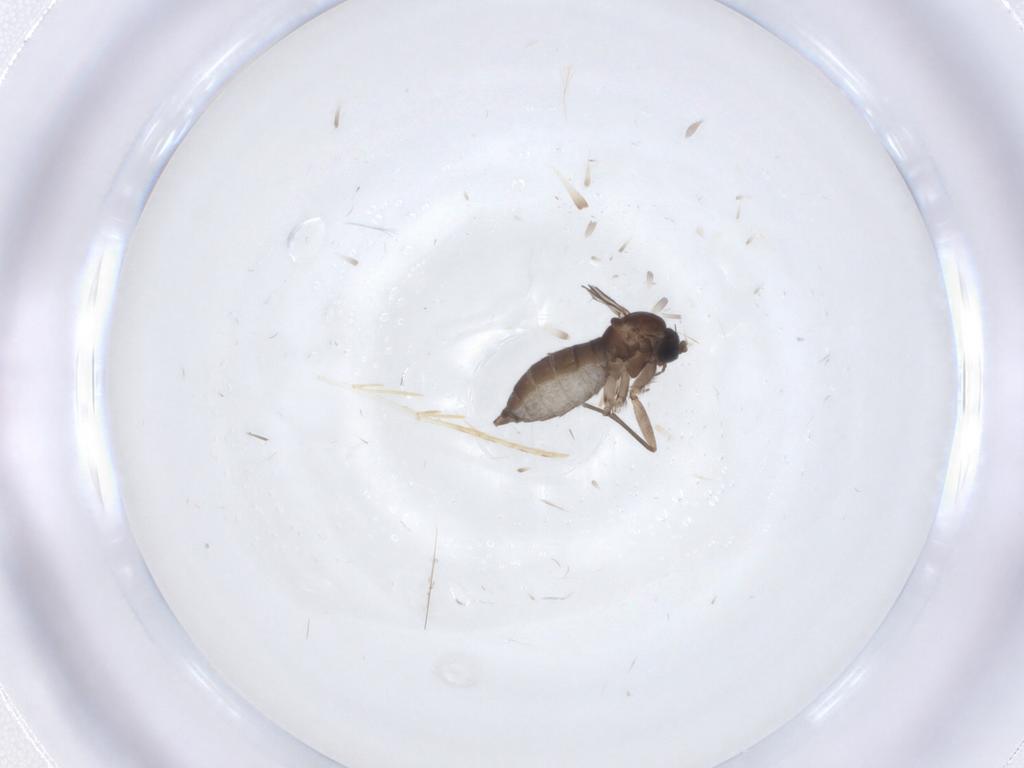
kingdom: Animalia
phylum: Arthropoda
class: Insecta
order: Diptera
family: Sciaridae
